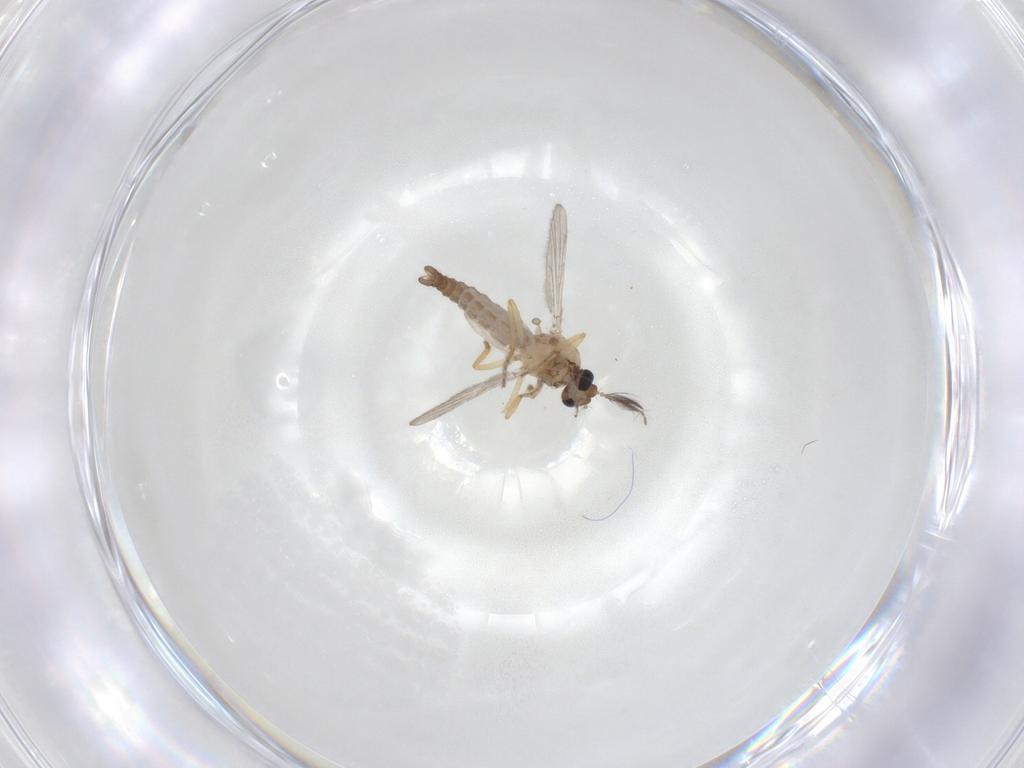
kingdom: Animalia
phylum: Arthropoda
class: Insecta
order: Diptera
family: Ceratopogonidae
